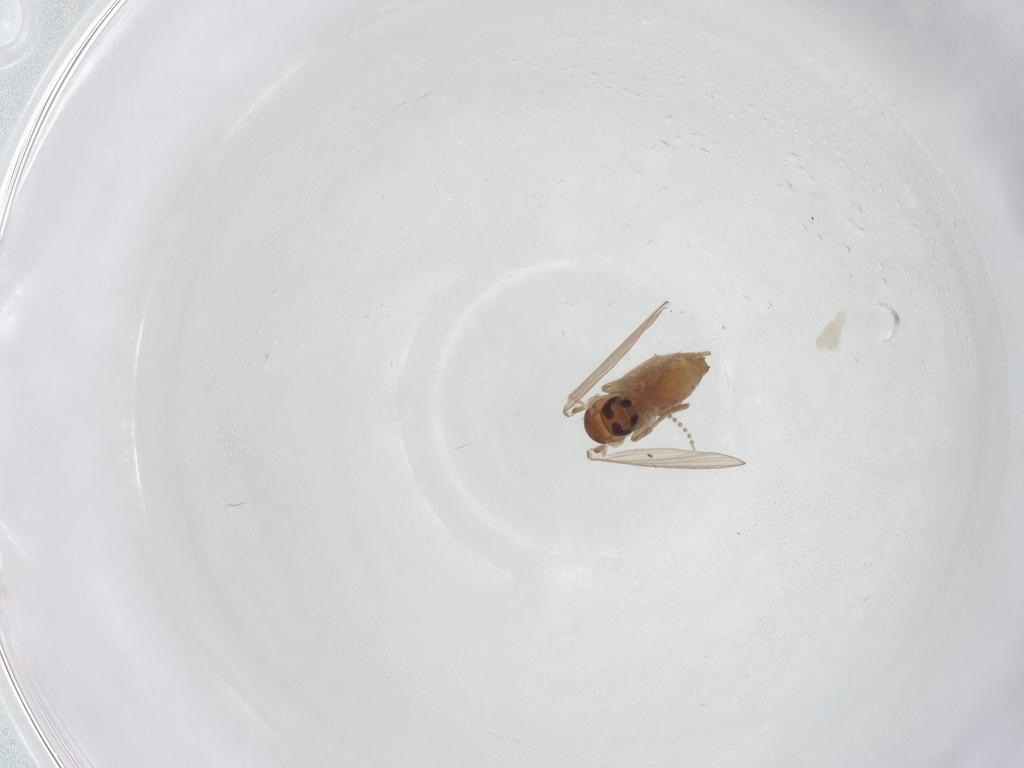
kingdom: Animalia
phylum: Arthropoda
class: Insecta
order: Diptera
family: Psychodidae
